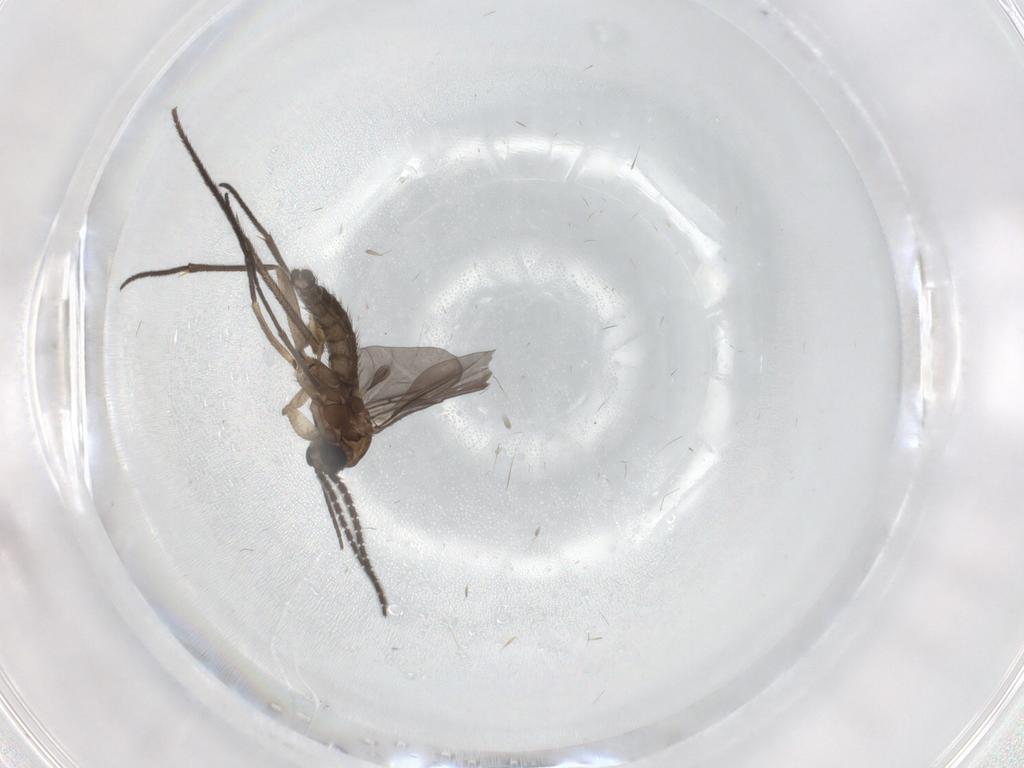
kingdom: Animalia
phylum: Arthropoda
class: Insecta
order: Diptera
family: Sciaridae
